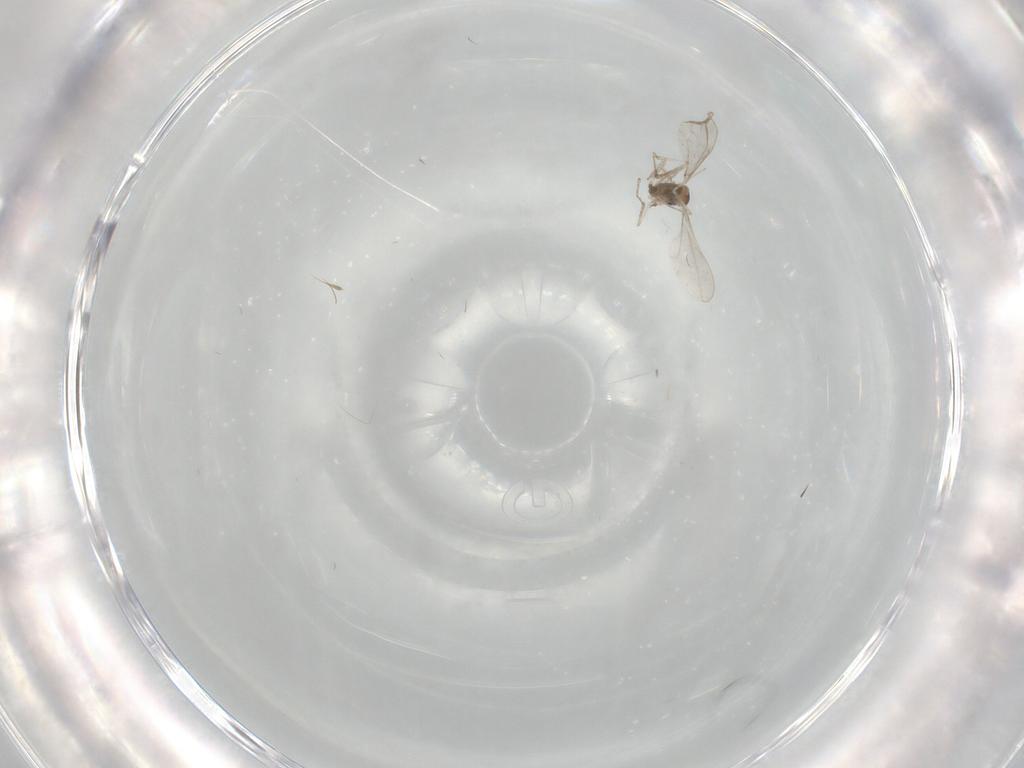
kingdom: Animalia
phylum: Arthropoda
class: Insecta
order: Diptera
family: Cecidomyiidae
